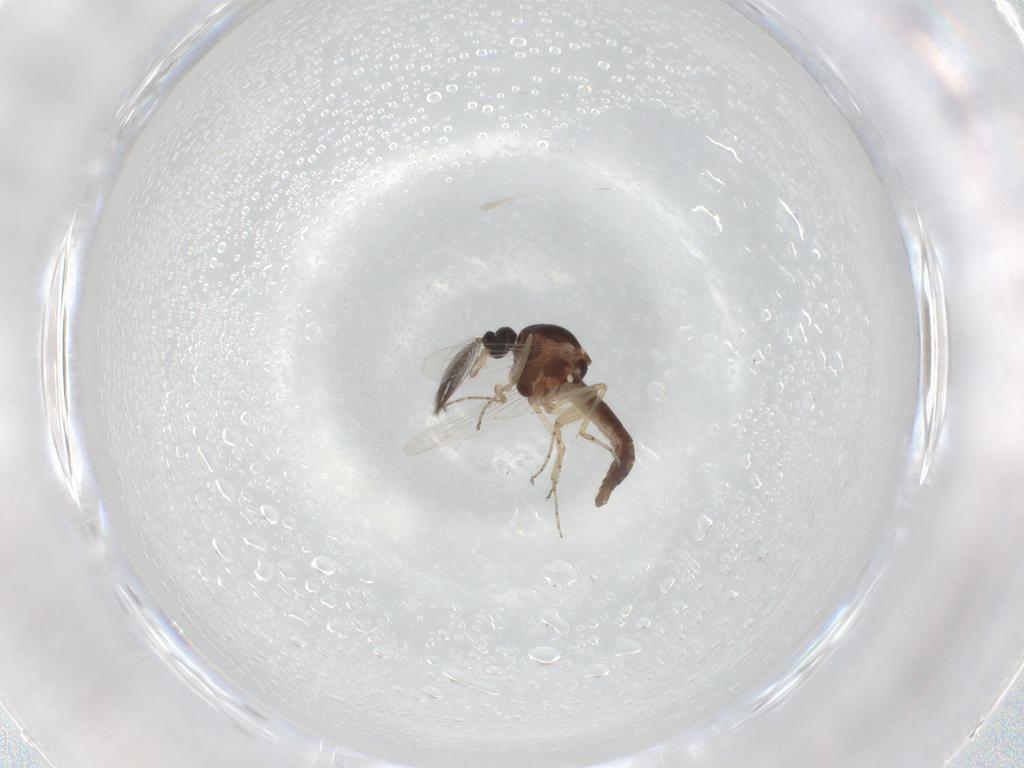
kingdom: Animalia
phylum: Arthropoda
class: Insecta
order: Diptera
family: Ceratopogonidae
